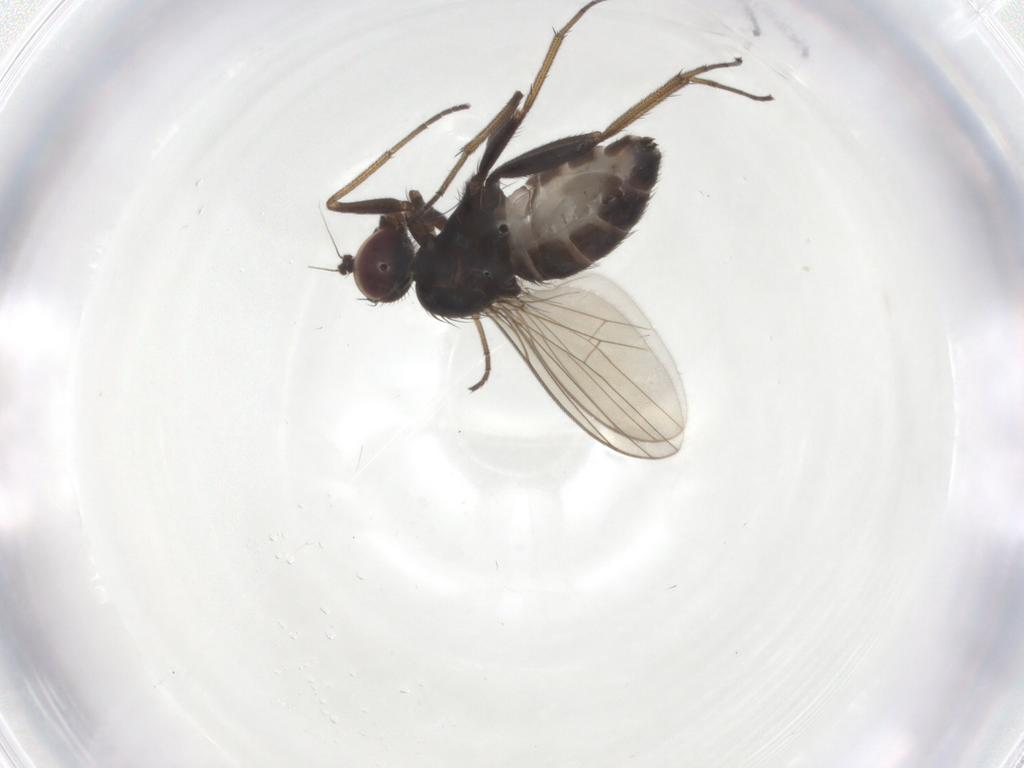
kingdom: Animalia
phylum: Arthropoda
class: Insecta
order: Diptera
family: Dolichopodidae
